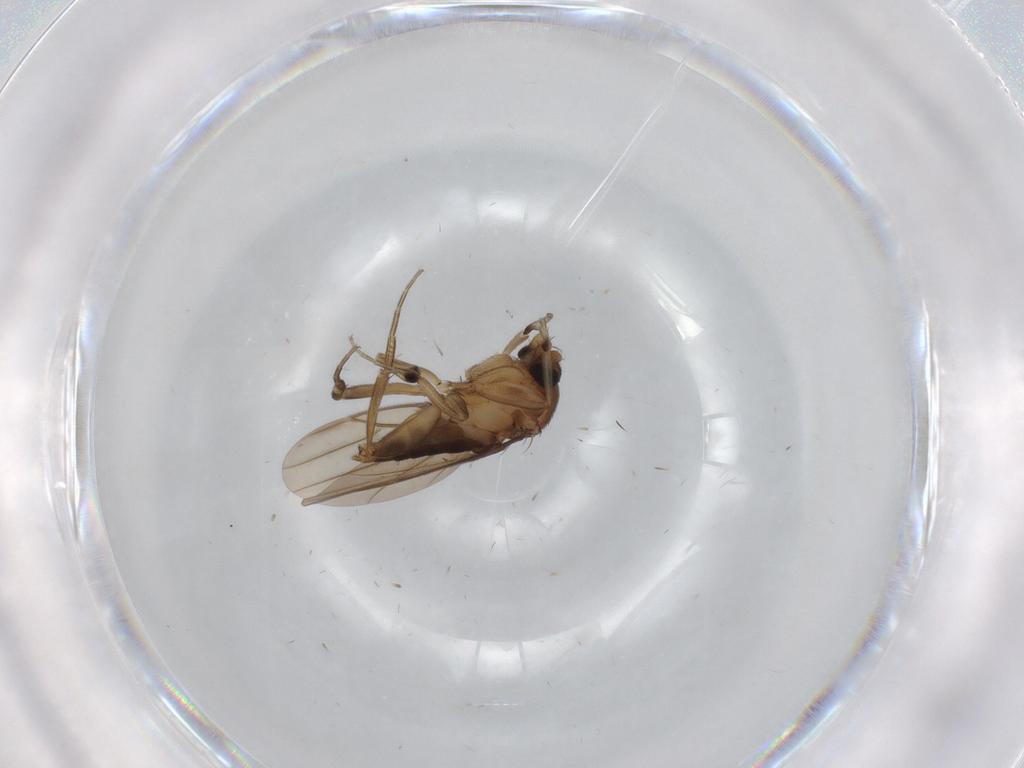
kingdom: Animalia
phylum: Arthropoda
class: Insecta
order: Diptera
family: Phoridae
